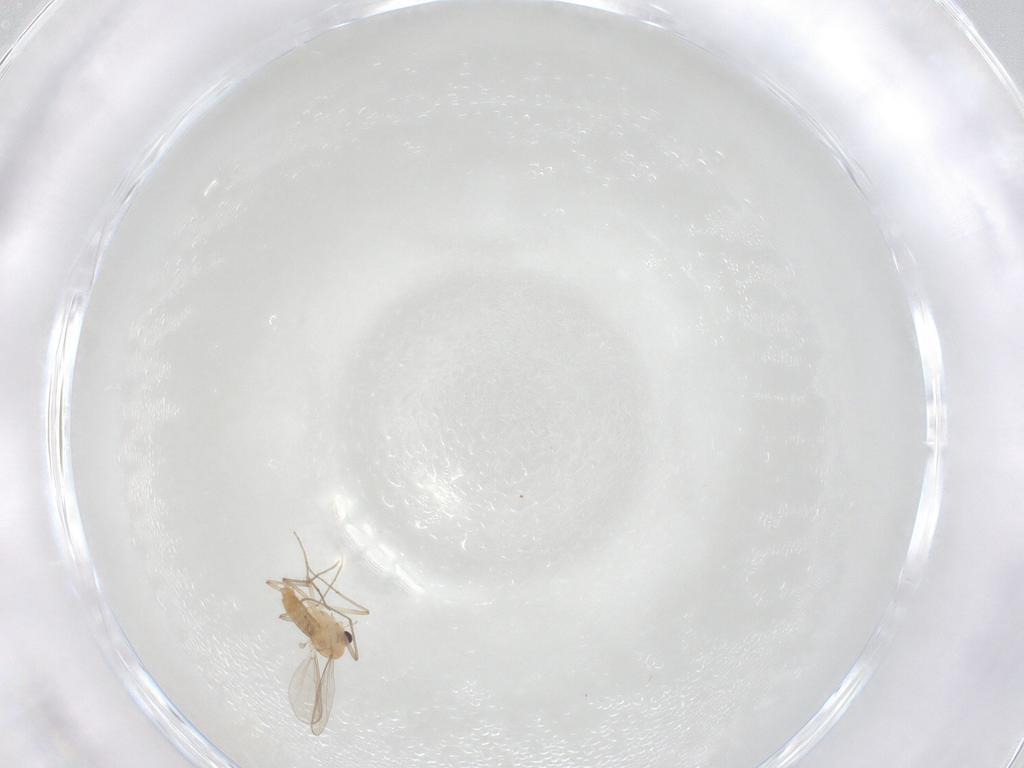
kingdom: Animalia
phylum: Arthropoda
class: Insecta
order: Diptera
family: Chironomidae
